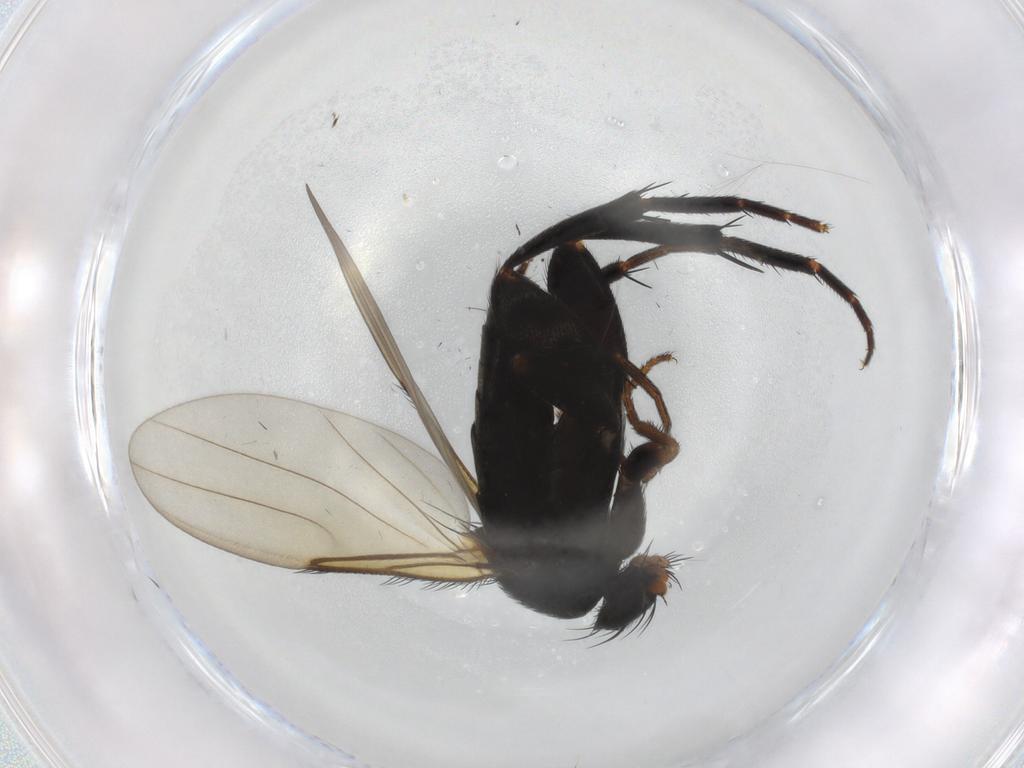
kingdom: Animalia
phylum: Arthropoda
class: Insecta
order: Diptera
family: Phoridae
